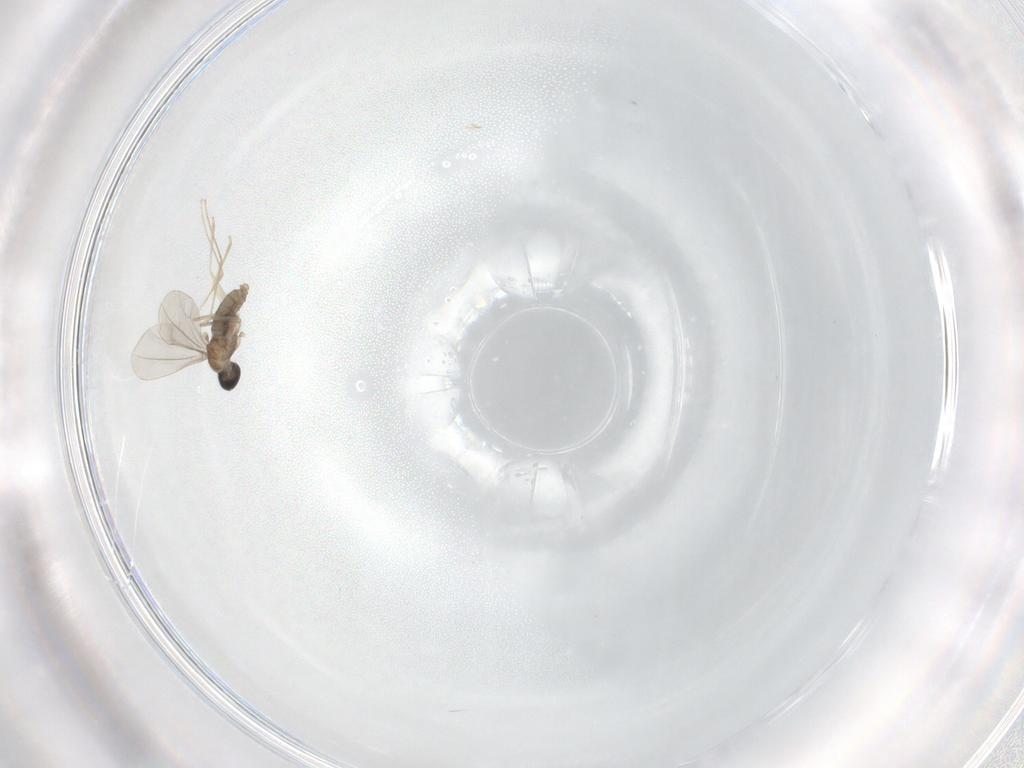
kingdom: Animalia
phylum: Arthropoda
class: Insecta
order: Diptera
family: Cecidomyiidae
